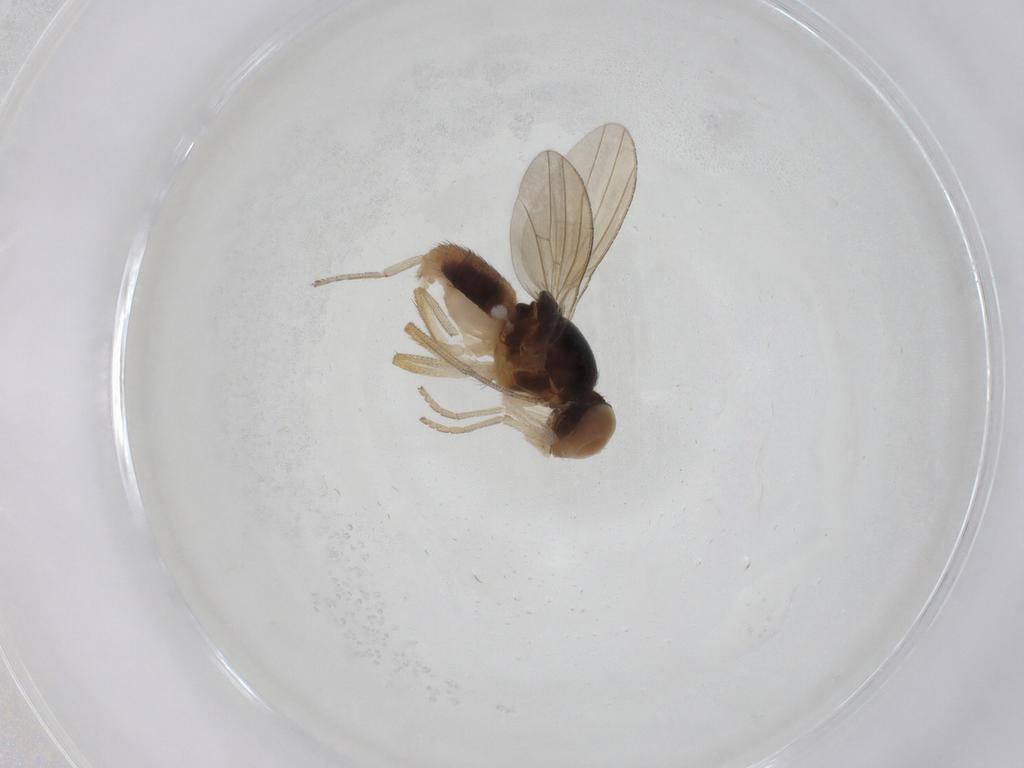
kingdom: Animalia
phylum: Arthropoda
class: Insecta
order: Diptera
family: Lauxaniidae
